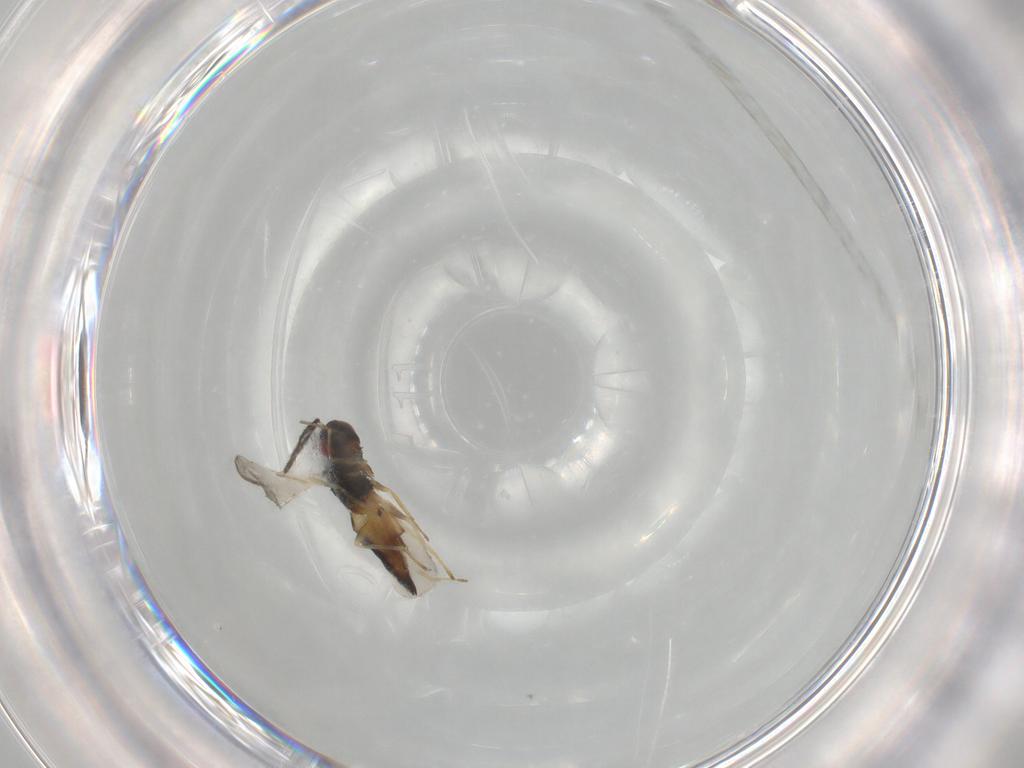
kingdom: Animalia
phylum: Arthropoda
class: Insecta
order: Hymenoptera
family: Eulophidae
